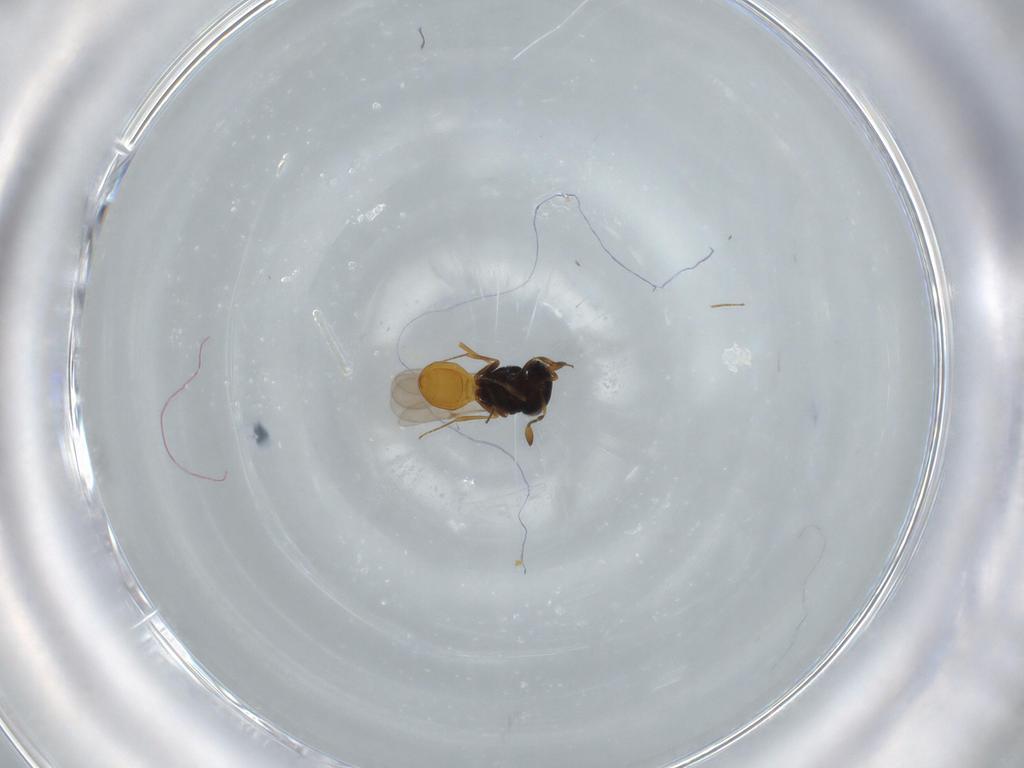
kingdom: Animalia
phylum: Arthropoda
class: Insecta
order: Hymenoptera
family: Scelionidae
